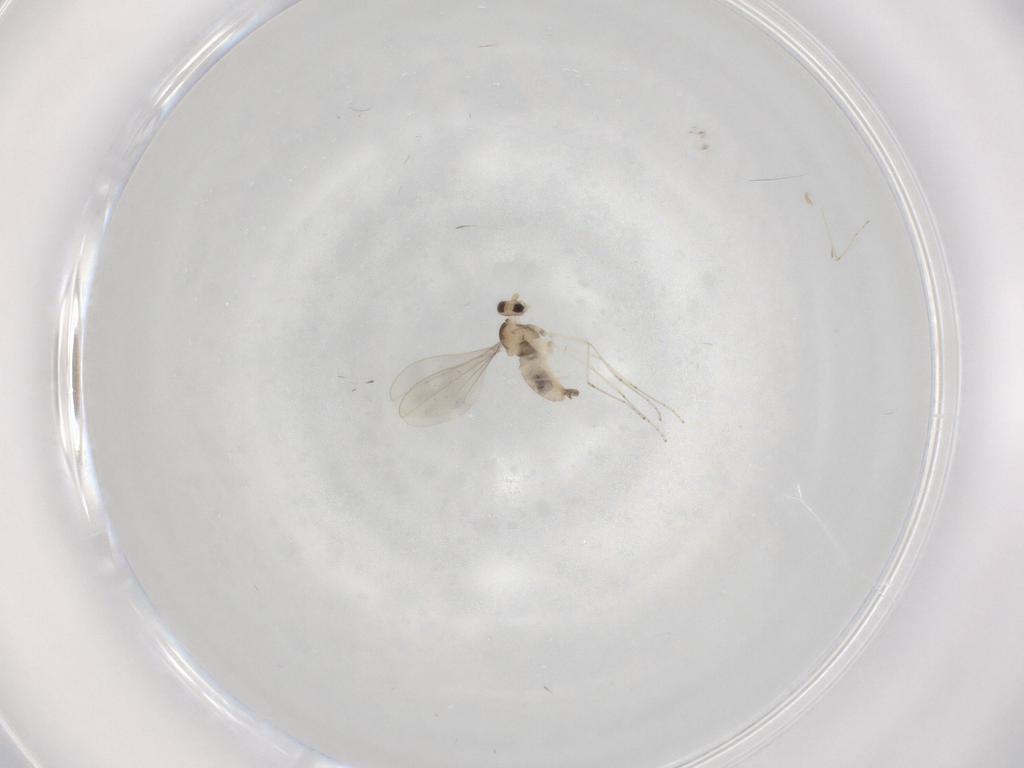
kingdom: Animalia
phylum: Arthropoda
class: Insecta
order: Diptera
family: Cecidomyiidae
